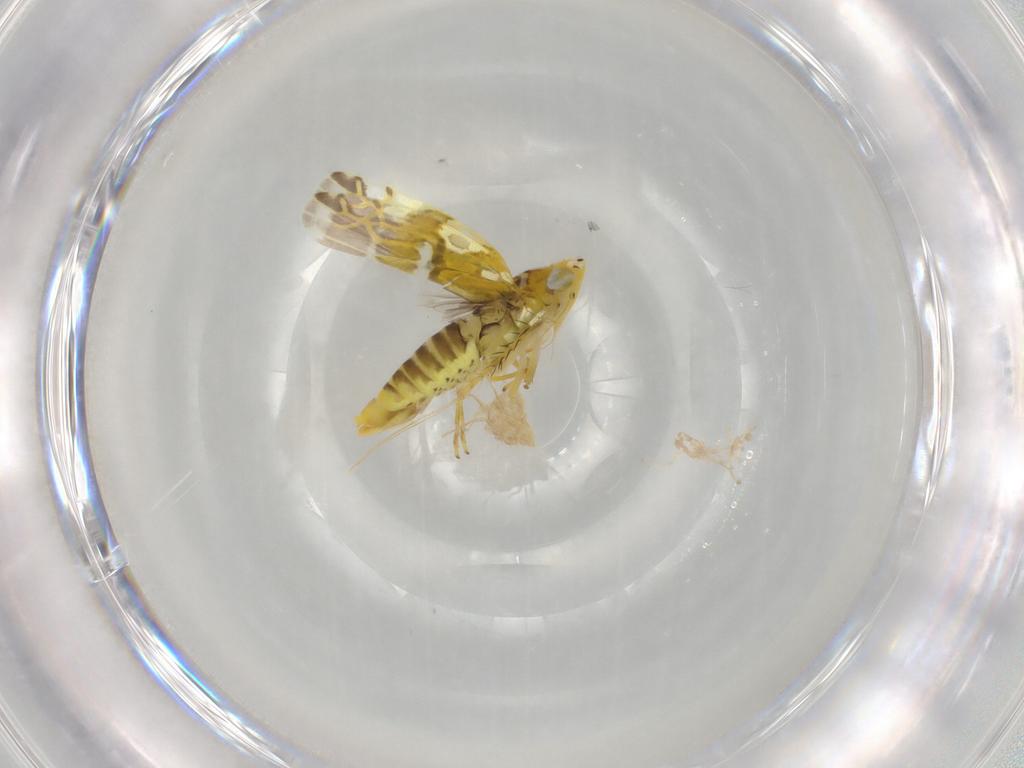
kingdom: Animalia
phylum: Arthropoda
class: Insecta
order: Hemiptera
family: Cicadellidae
